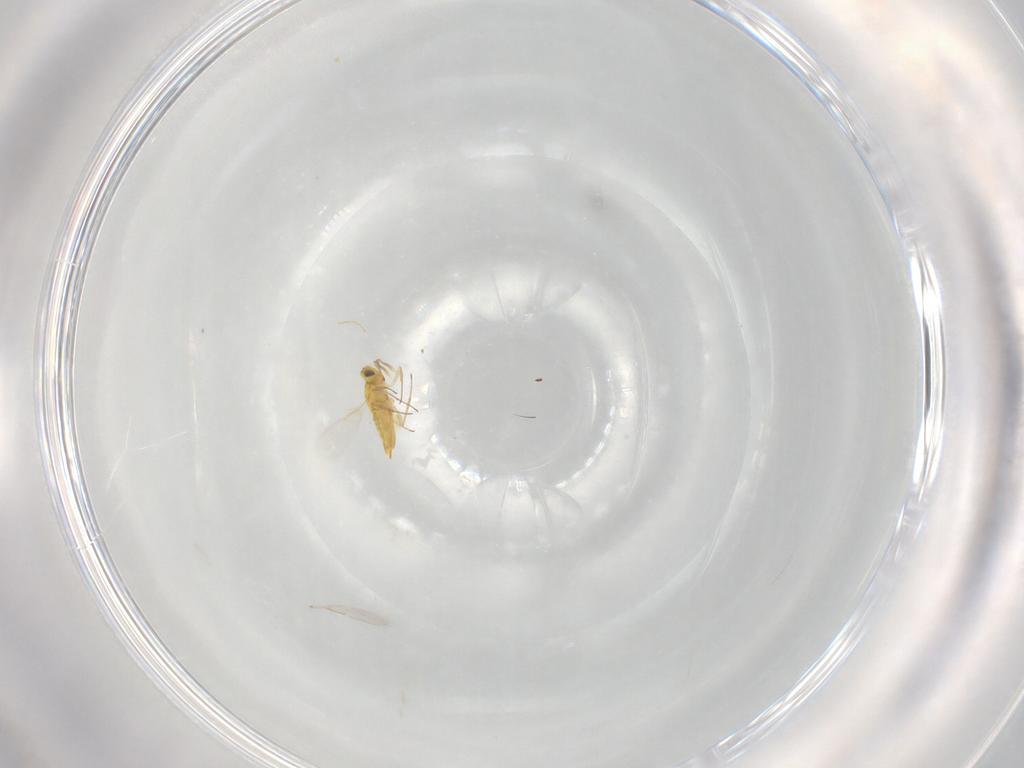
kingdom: Animalia
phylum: Arthropoda
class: Insecta
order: Hymenoptera
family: Aphelinidae
